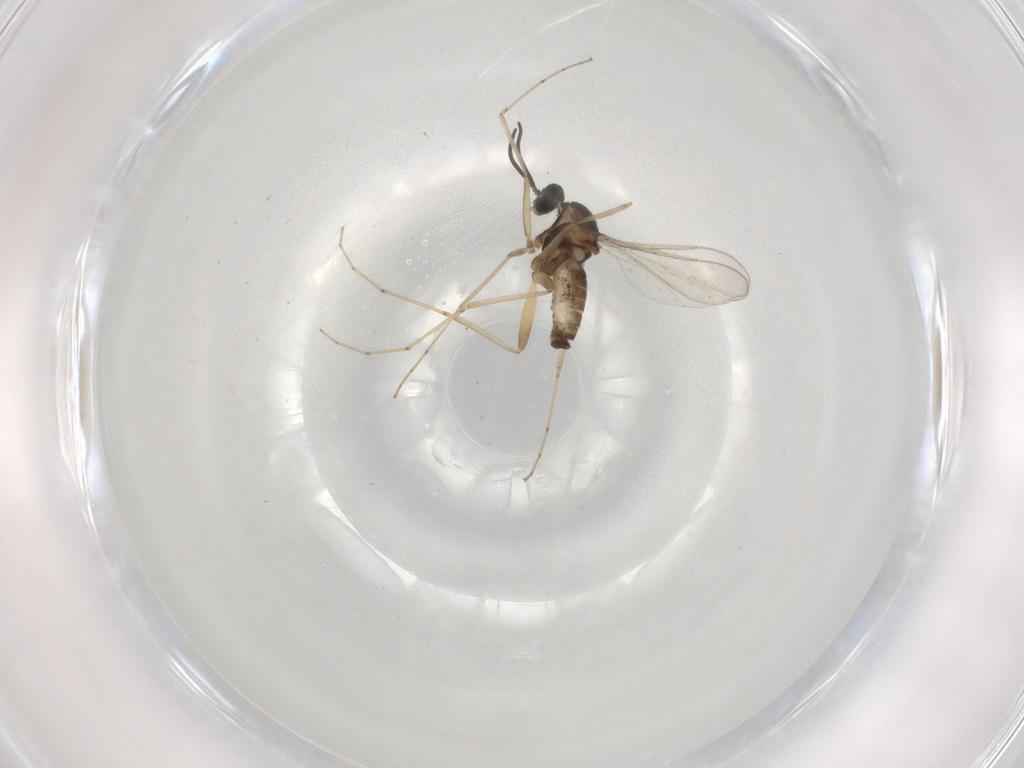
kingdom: Animalia
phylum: Arthropoda
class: Insecta
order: Diptera
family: Cecidomyiidae
